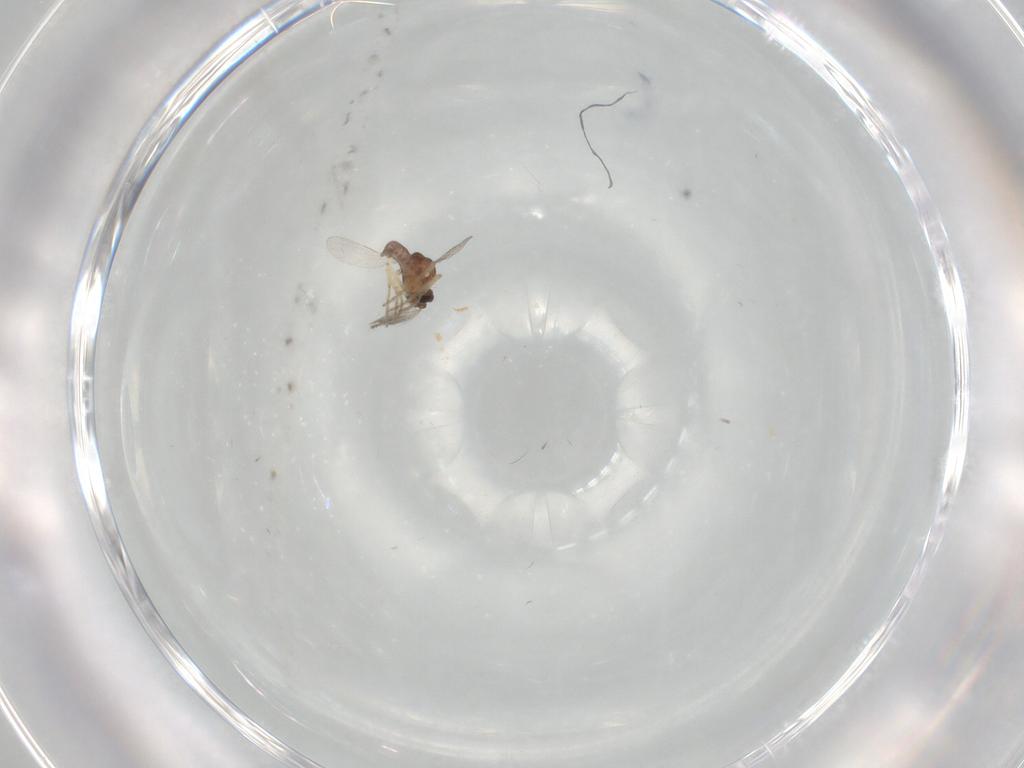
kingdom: Animalia
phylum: Arthropoda
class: Insecta
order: Diptera
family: Ceratopogonidae
